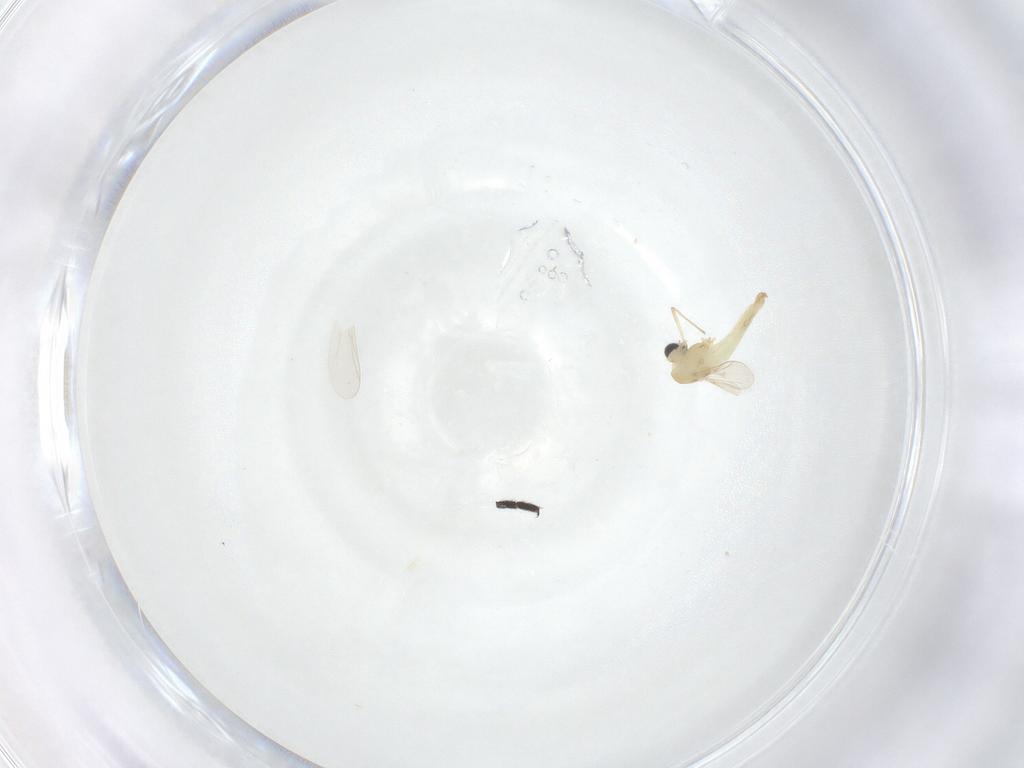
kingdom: Animalia
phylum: Arthropoda
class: Insecta
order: Diptera
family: Chironomidae
